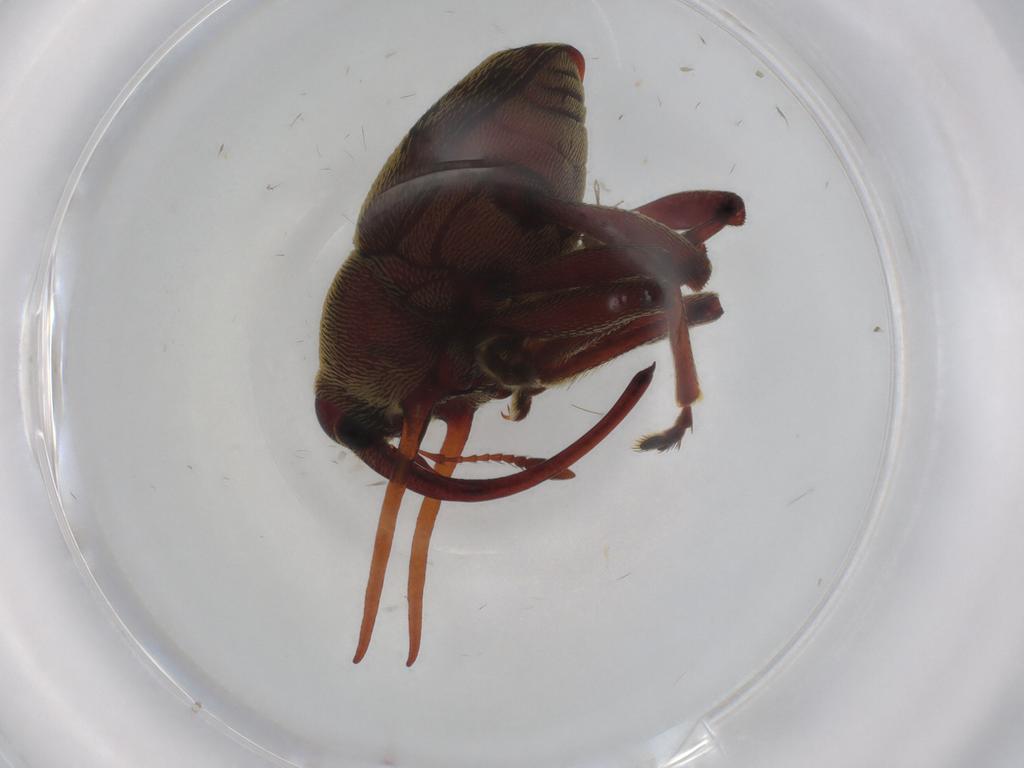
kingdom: Animalia
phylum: Arthropoda
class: Insecta
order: Coleoptera
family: Curculionidae
